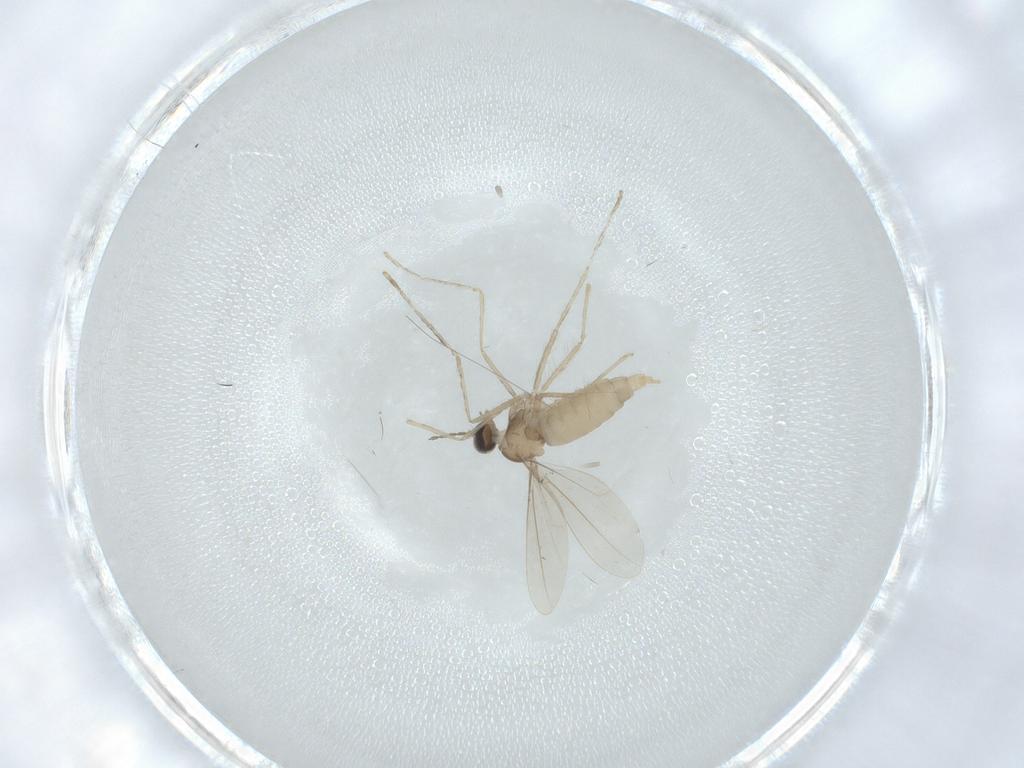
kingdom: Animalia
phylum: Arthropoda
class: Insecta
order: Diptera
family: Cecidomyiidae
